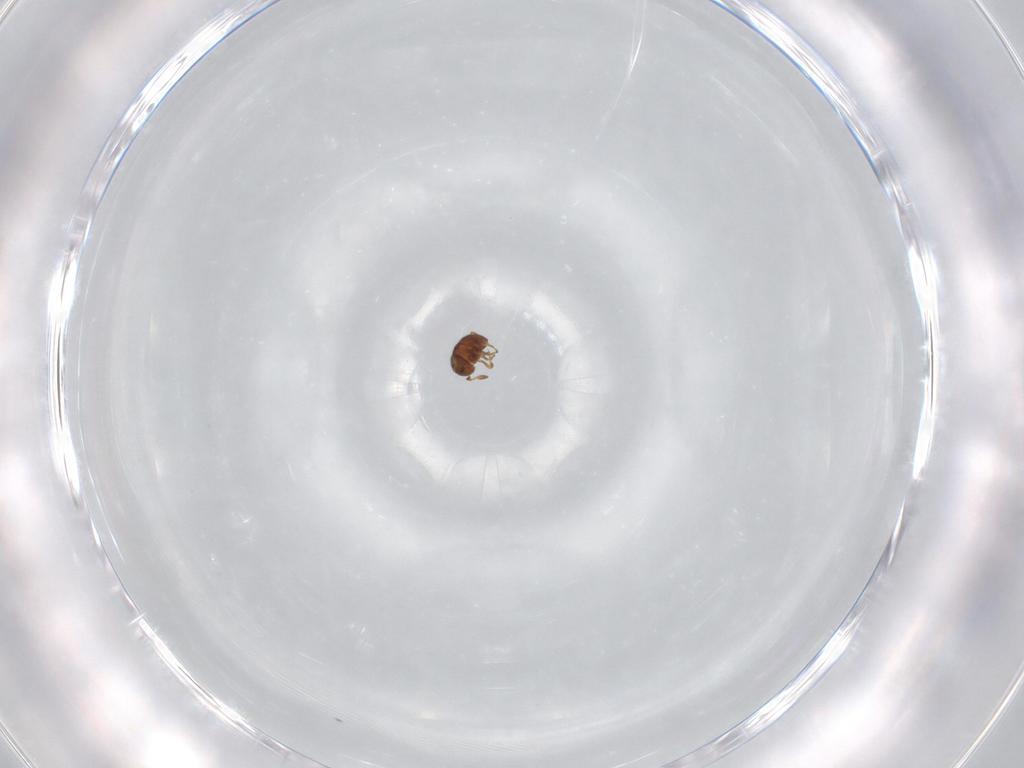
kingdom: Animalia
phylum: Arthropoda
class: Insecta
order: Hymenoptera
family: Scelionidae
